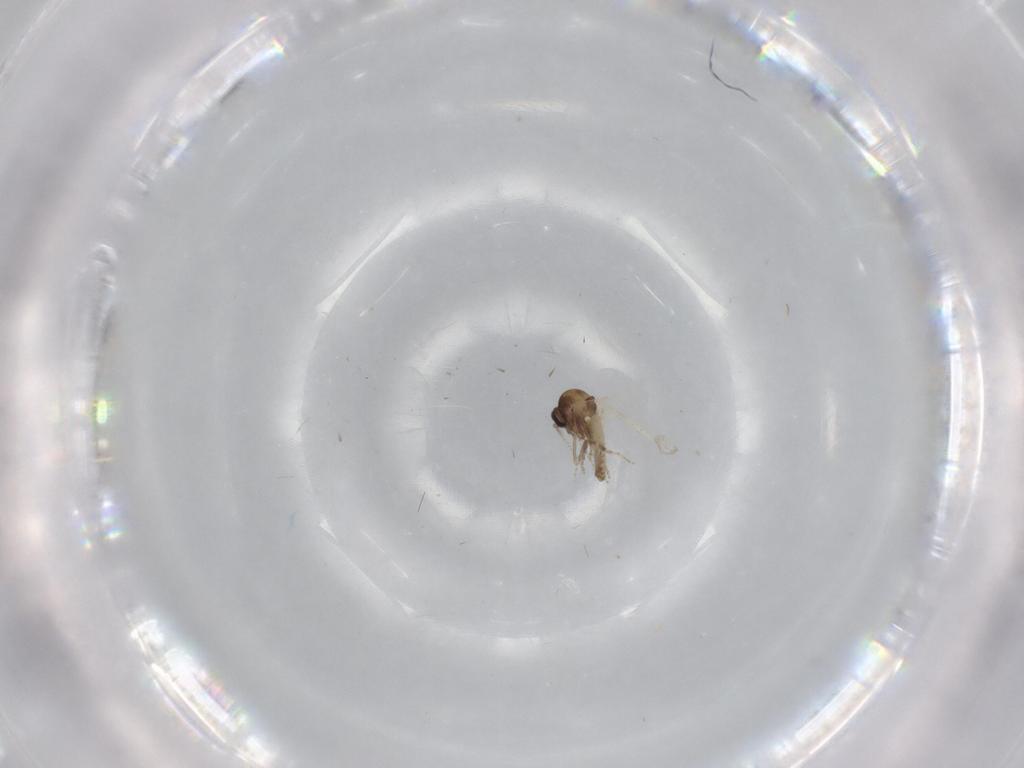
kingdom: Animalia
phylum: Arthropoda
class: Insecta
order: Diptera
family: Ceratopogonidae
